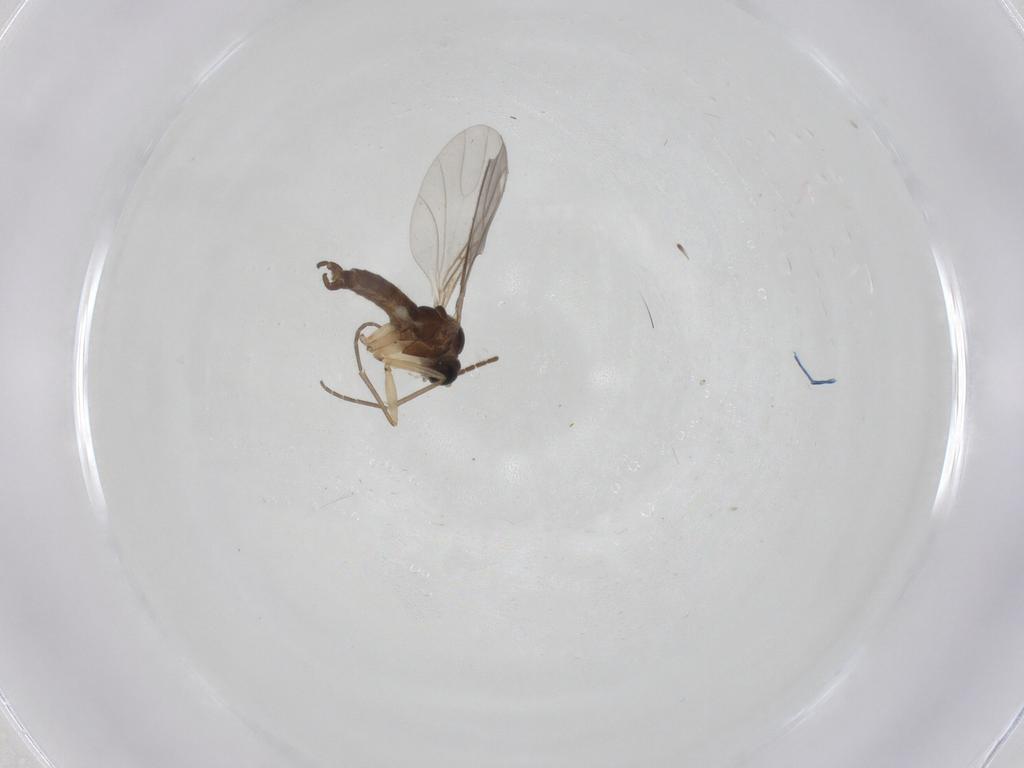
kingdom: Animalia
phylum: Arthropoda
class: Insecta
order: Diptera
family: Sciaridae
